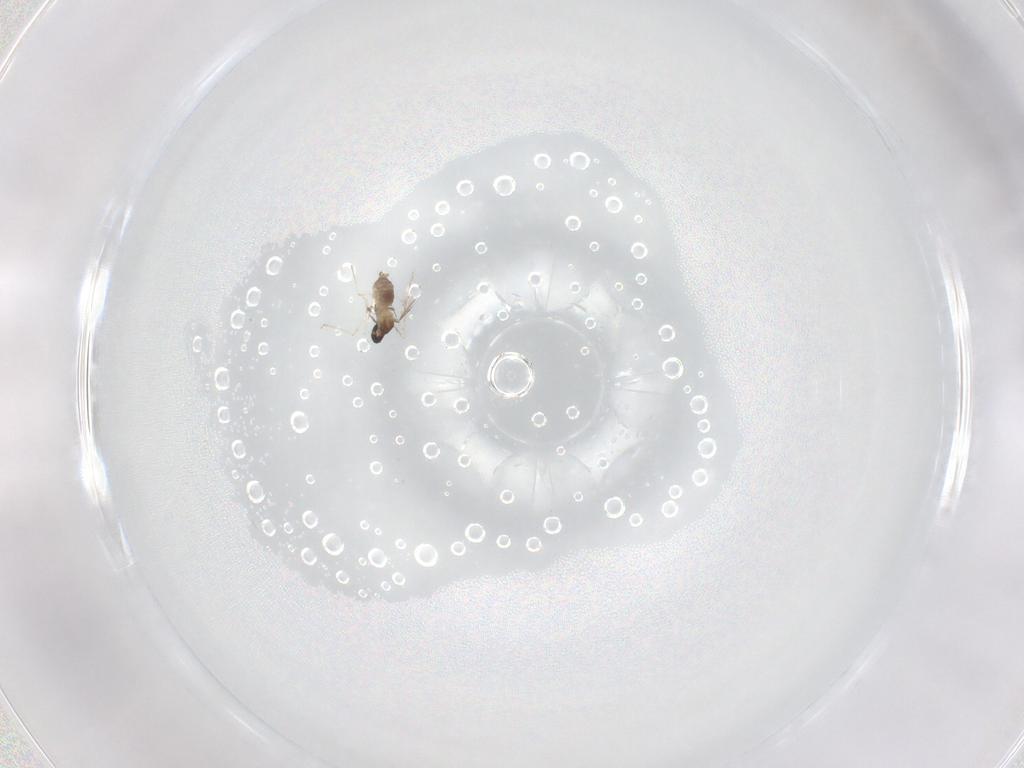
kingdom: Animalia
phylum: Arthropoda
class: Insecta
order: Diptera
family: Cecidomyiidae
